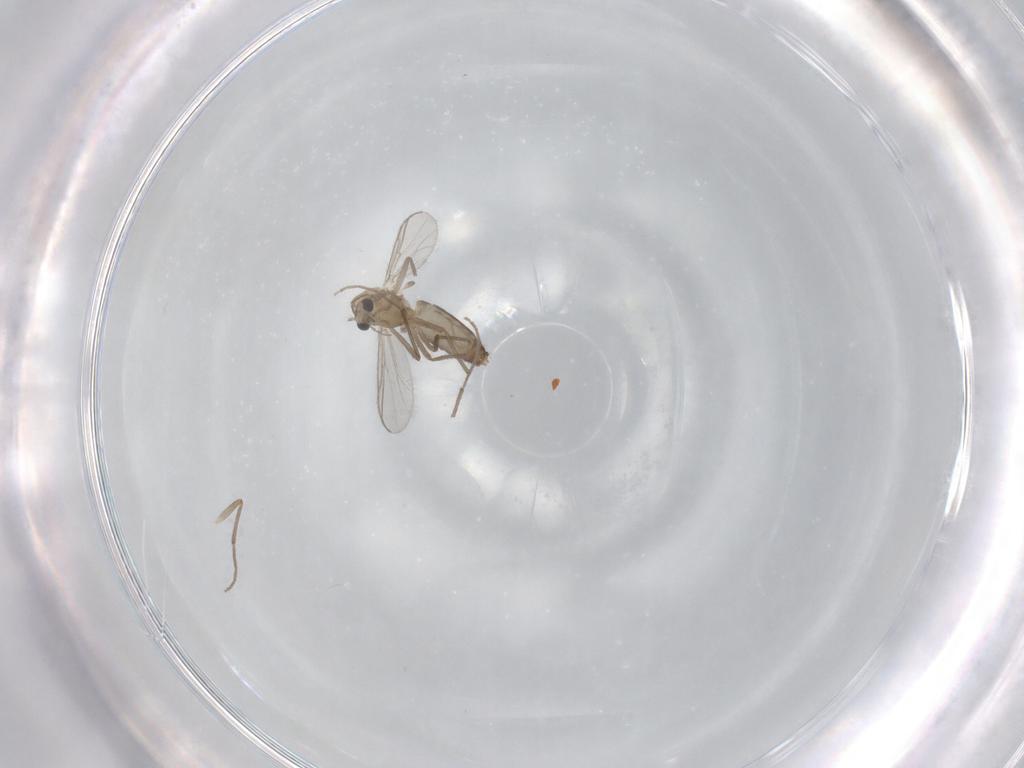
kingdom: Animalia
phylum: Arthropoda
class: Insecta
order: Diptera
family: Chironomidae
